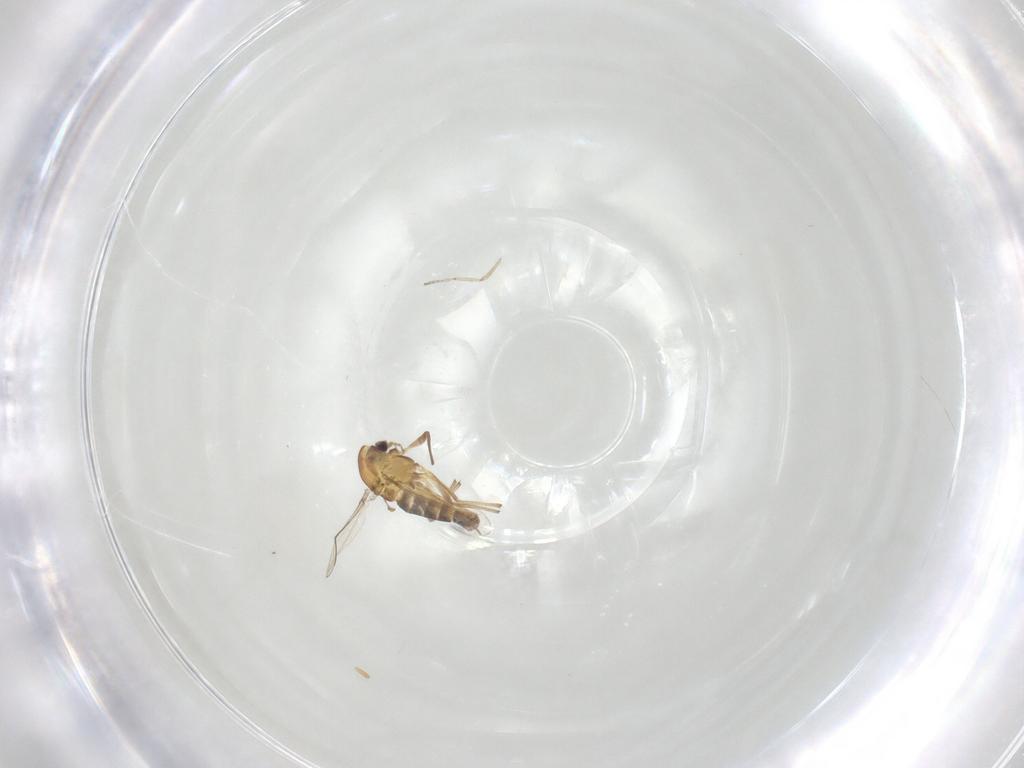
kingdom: Animalia
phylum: Arthropoda
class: Insecta
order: Diptera
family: Ceratopogonidae
